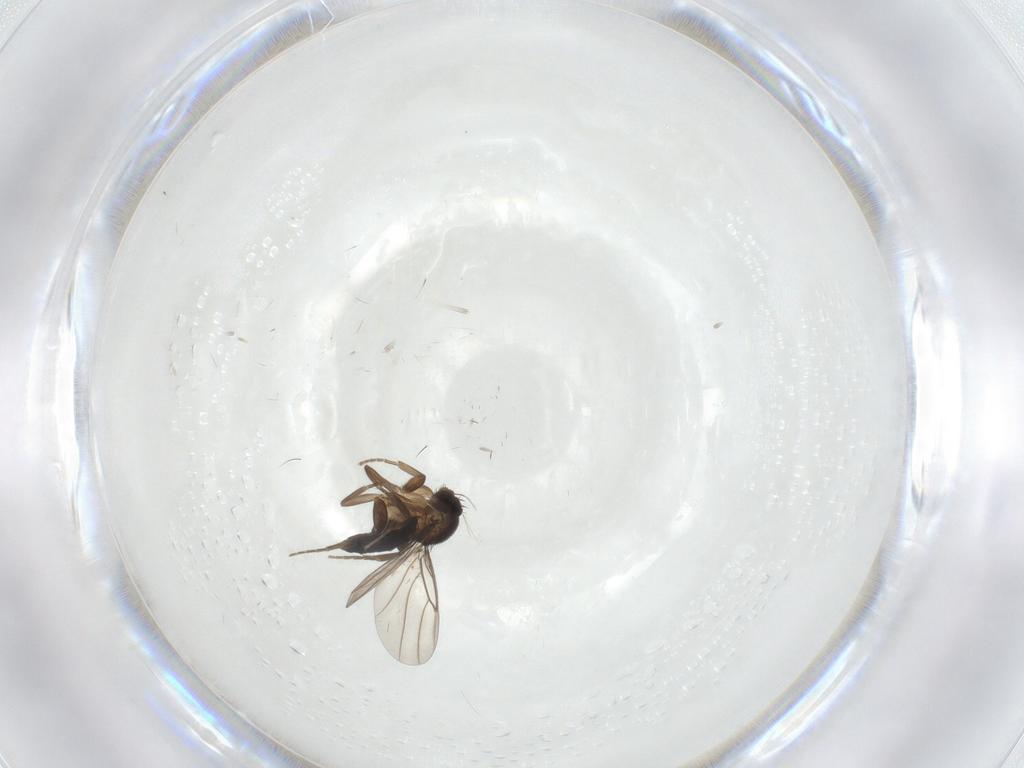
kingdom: Animalia
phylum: Arthropoda
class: Insecta
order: Diptera
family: Phoridae
